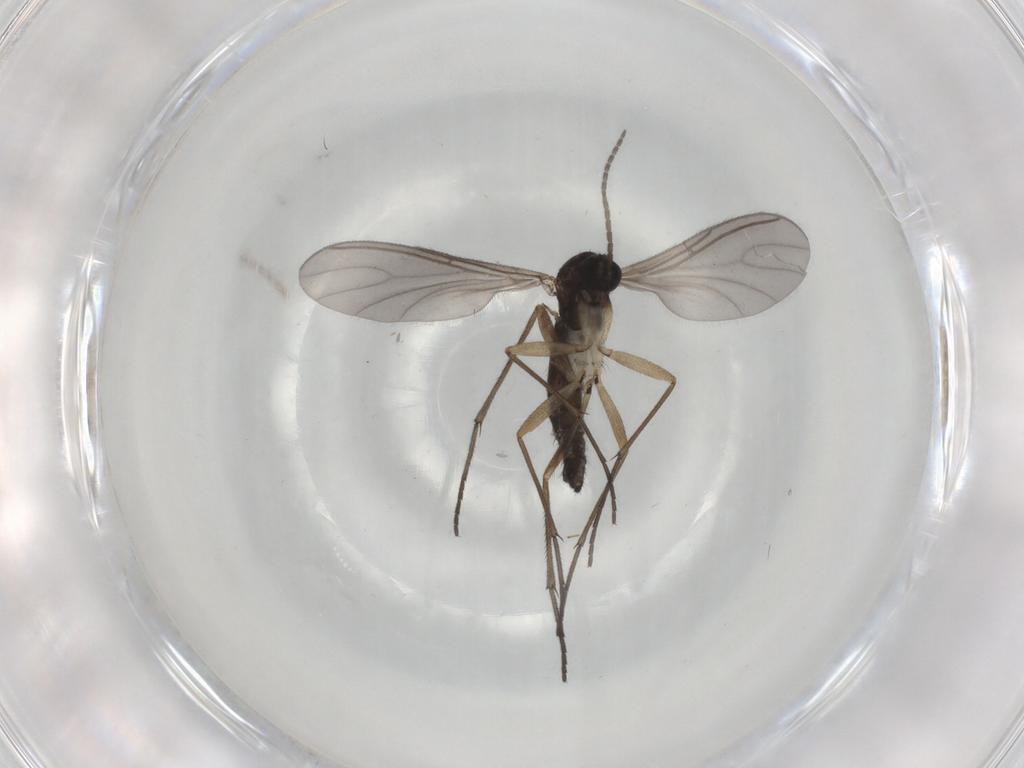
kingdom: Animalia
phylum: Arthropoda
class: Insecta
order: Diptera
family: Sciaridae
